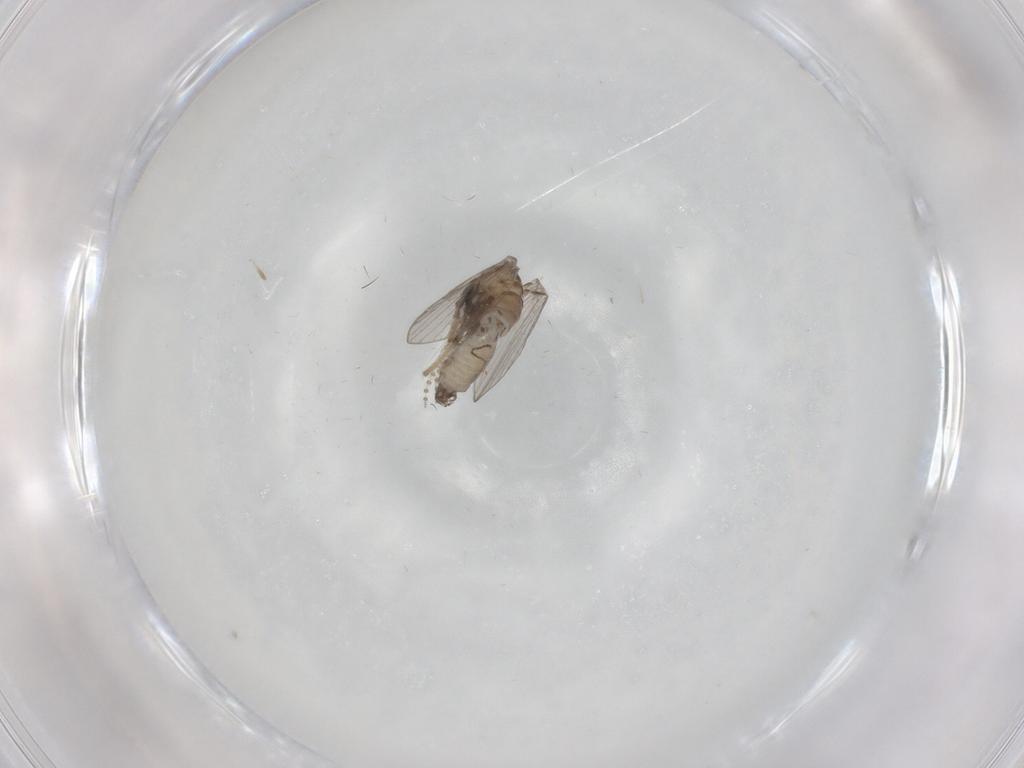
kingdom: Animalia
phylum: Arthropoda
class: Insecta
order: Diptera
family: Psychodidae
